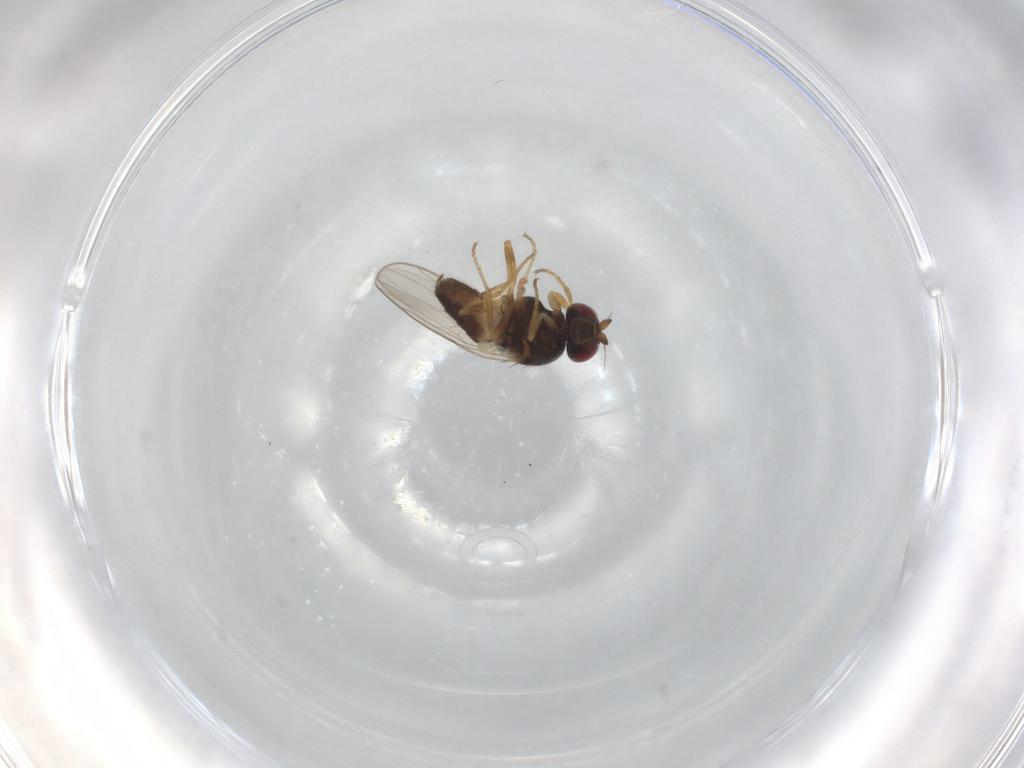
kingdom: Animalia
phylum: Arthropoda
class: Insecta
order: Diptera
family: Chloropidae
